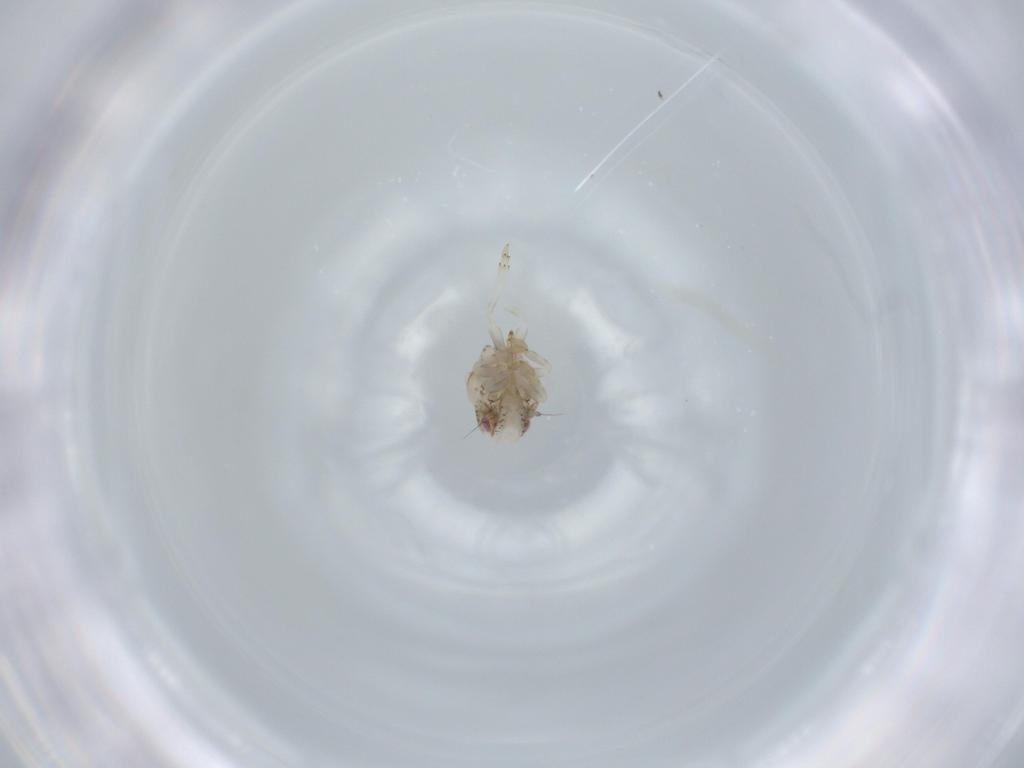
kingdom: Animalia
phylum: Arthropoda
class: Insecta
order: Hemiptera
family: Acanaloniidae
